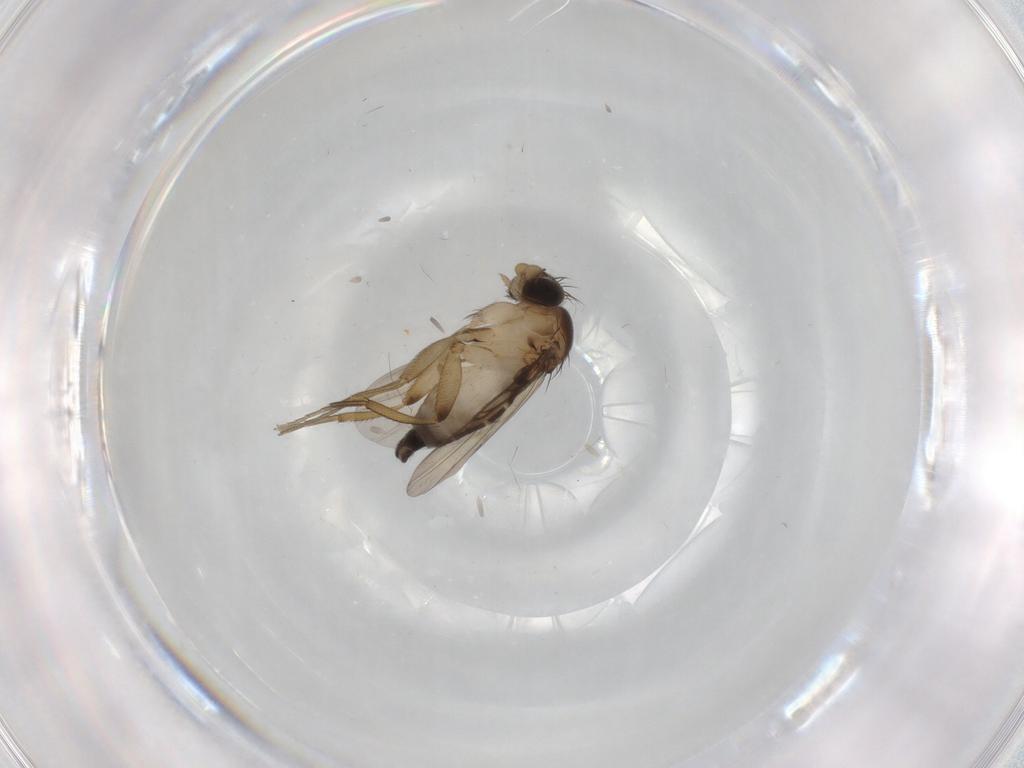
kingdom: Animalia
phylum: Arthropoda
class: Insecta
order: Diptera
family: Phoridae
